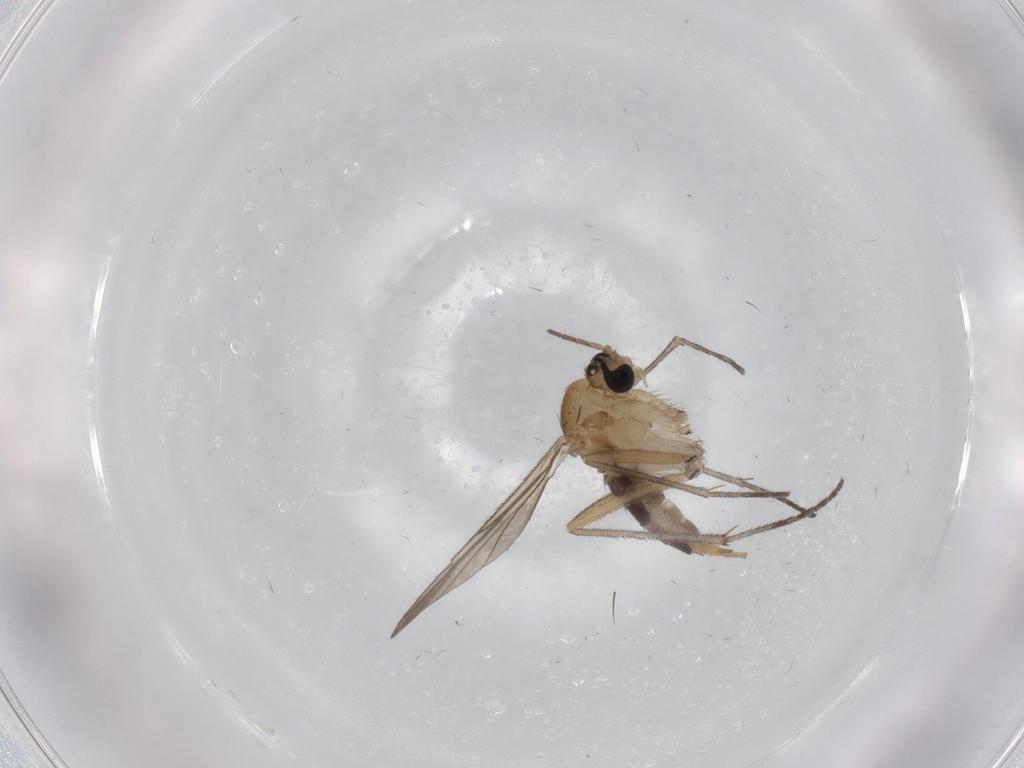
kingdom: Animalia
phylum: Arthropoda
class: Insecta
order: Diptera
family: Sciaridae
